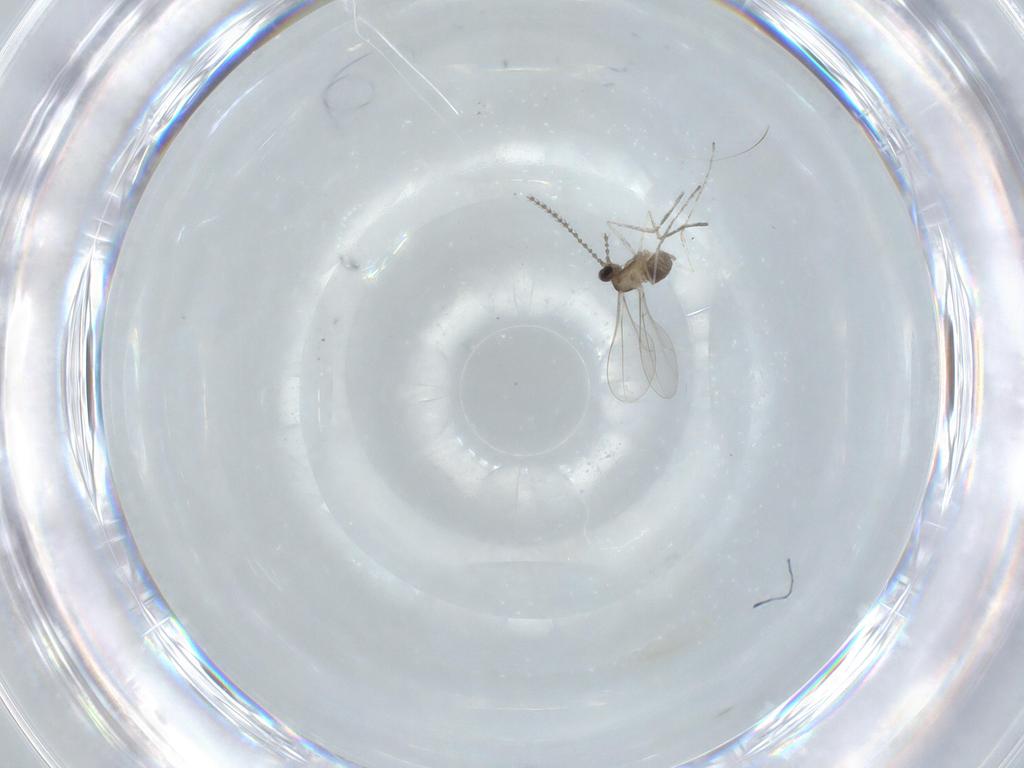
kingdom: Animalia
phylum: Arthropoda
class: Insecta
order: Diptera
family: Cecidomyiidae
